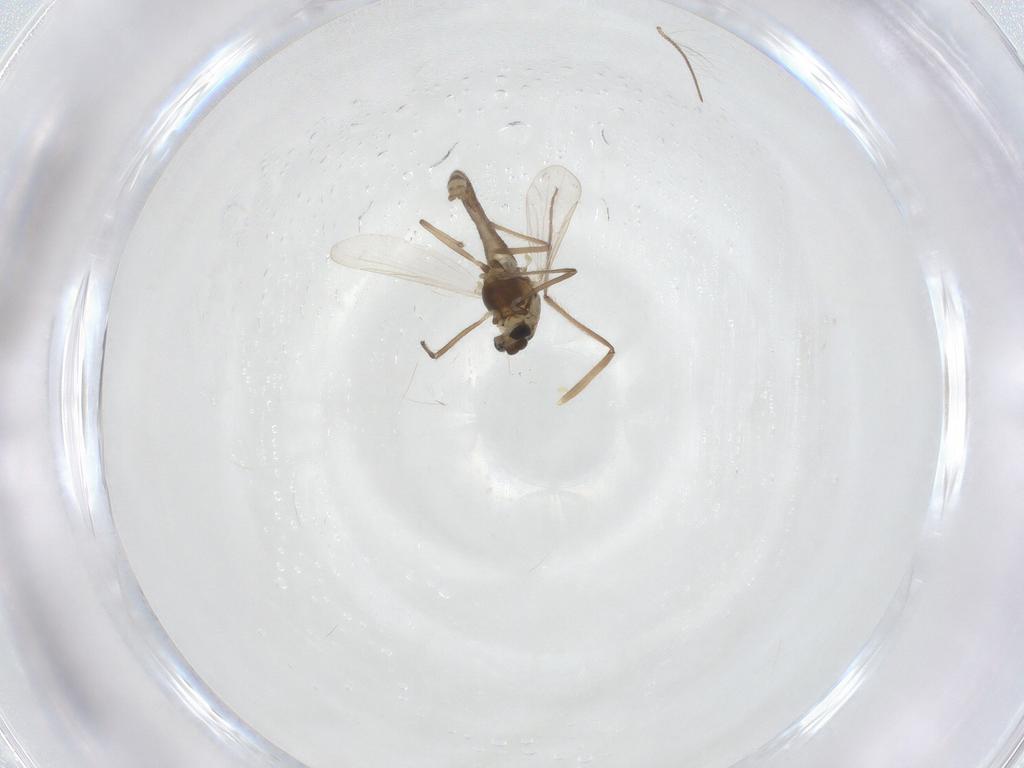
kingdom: Animalia
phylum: Arthropoda
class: Insecta
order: Diptera
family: Chironomidae
